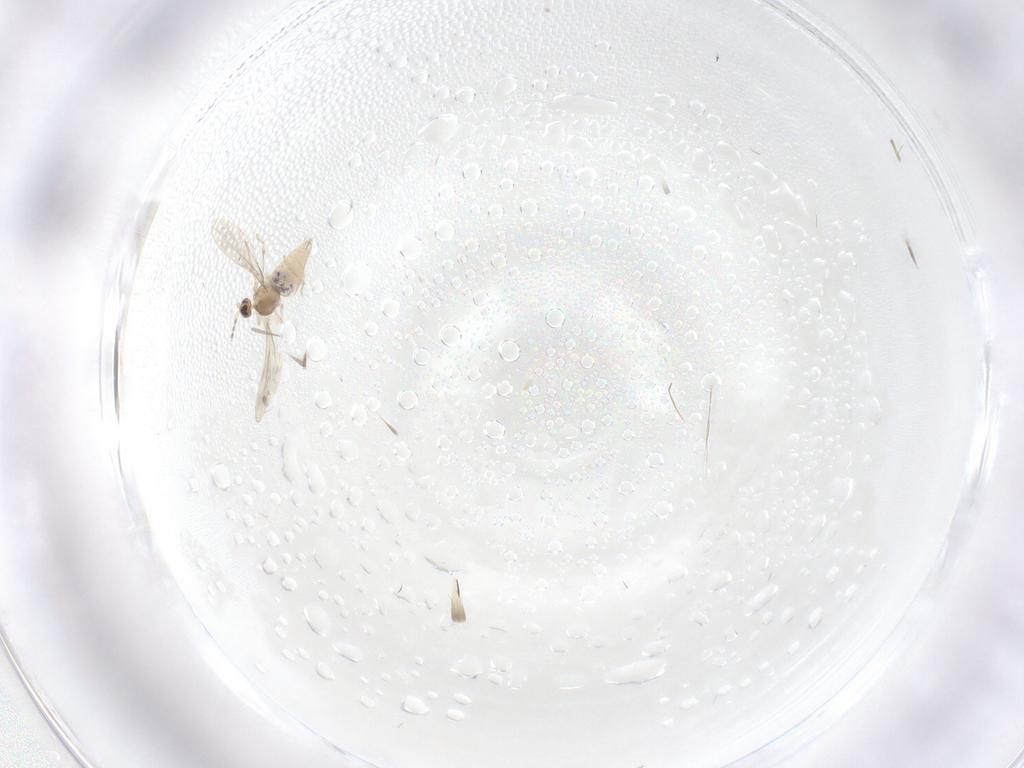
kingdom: Animalia
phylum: Arthropoda
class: Insecta
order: Diptera
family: Cecidomyiidae
